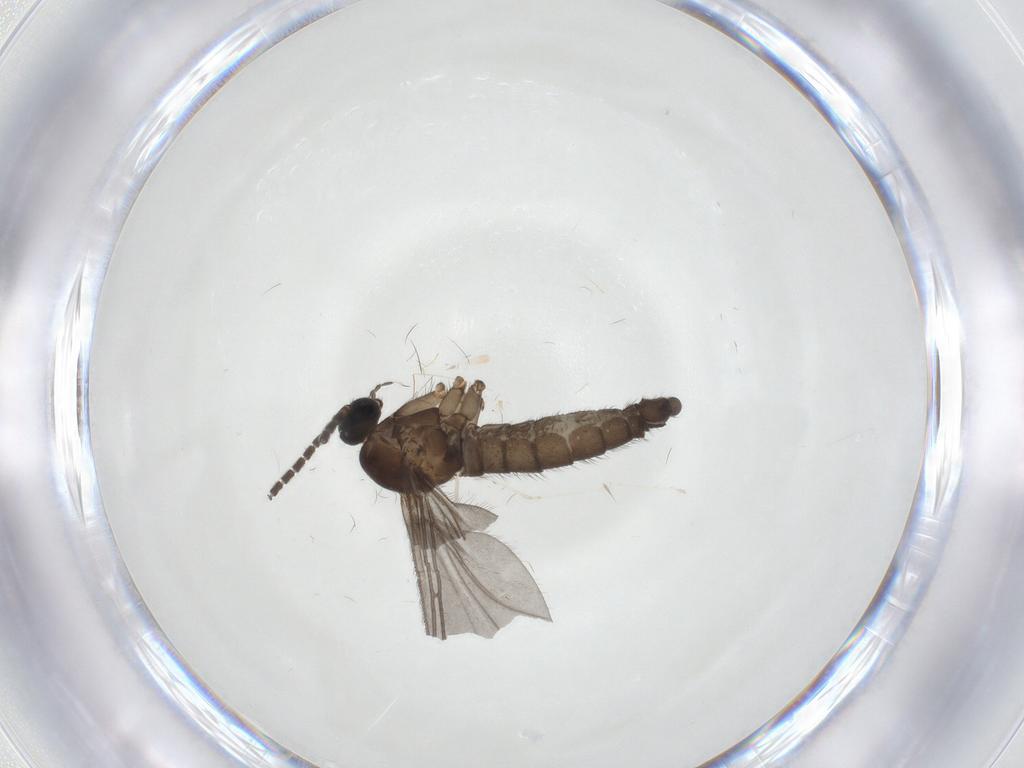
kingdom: Animalia
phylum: Arthropoda
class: Insecta
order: Diptera
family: Sciaridae
